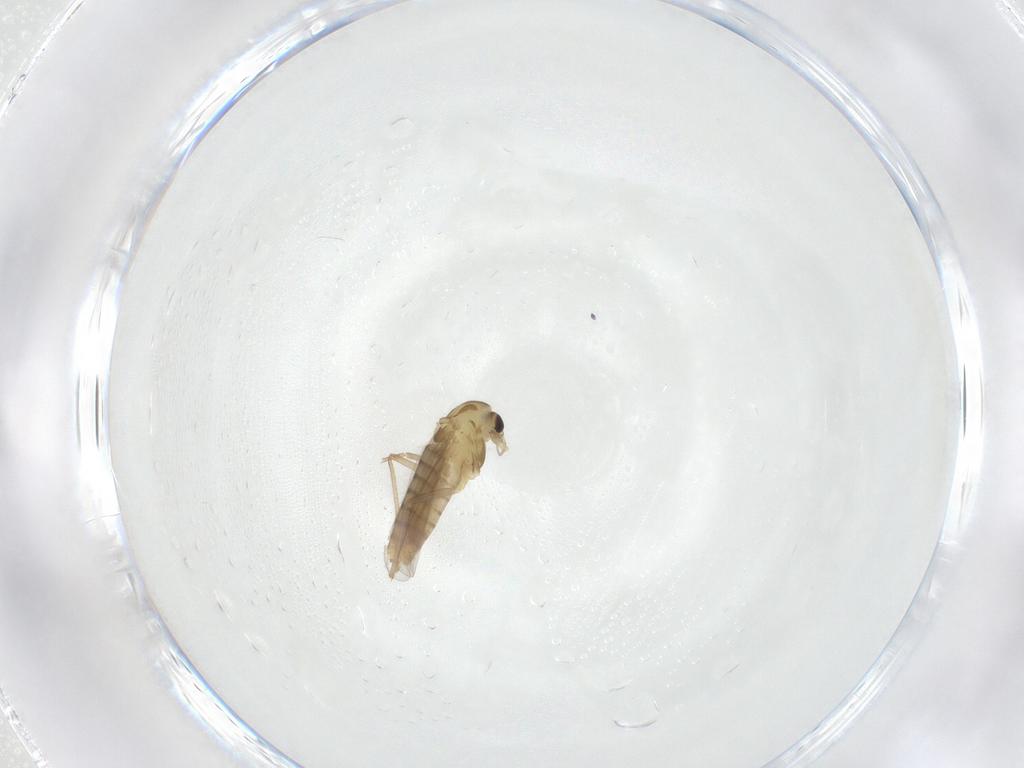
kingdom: Animalia
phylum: Arthropoda
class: Insecta
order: Diptera
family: Chironomidae
